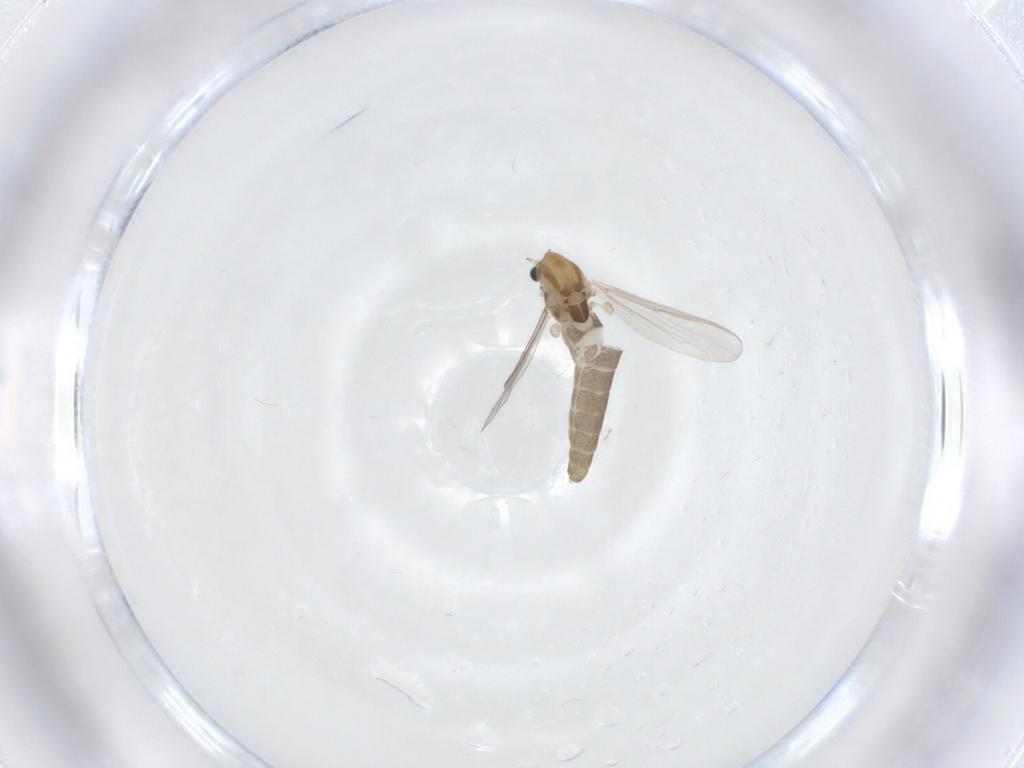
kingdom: Animalia
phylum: Arthropoda
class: Insecta
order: Diptera
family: Chironomidae
